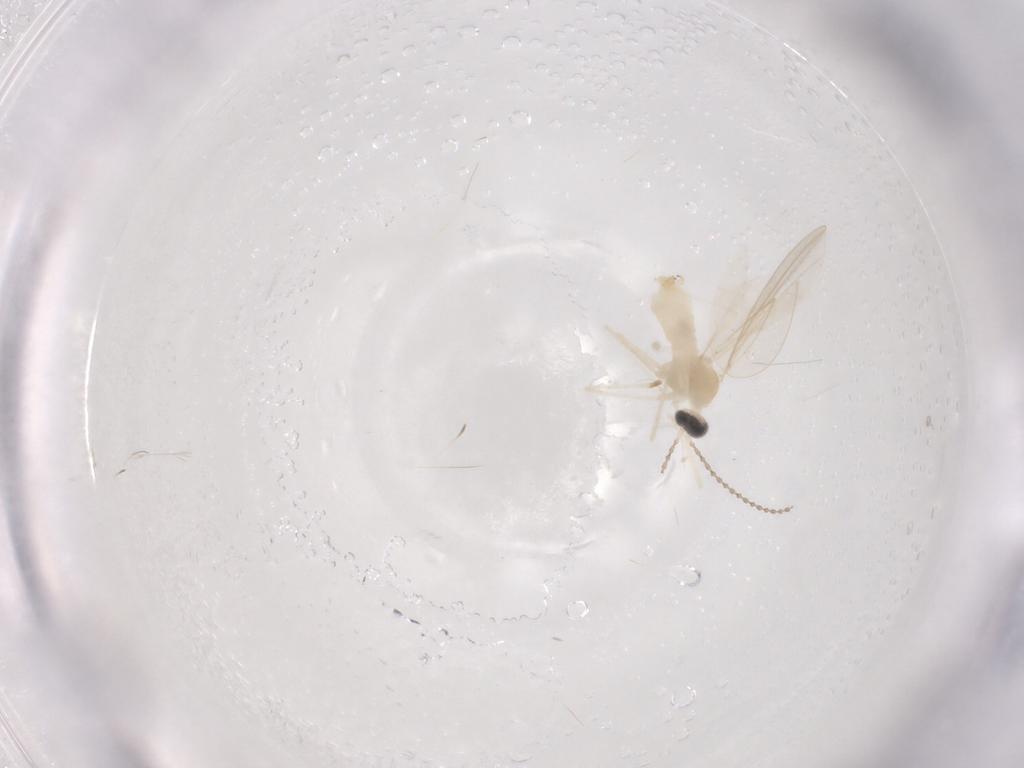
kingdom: Animalia
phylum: Arthropoda
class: Insecta
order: Diptera
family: Cecidomyiidae
